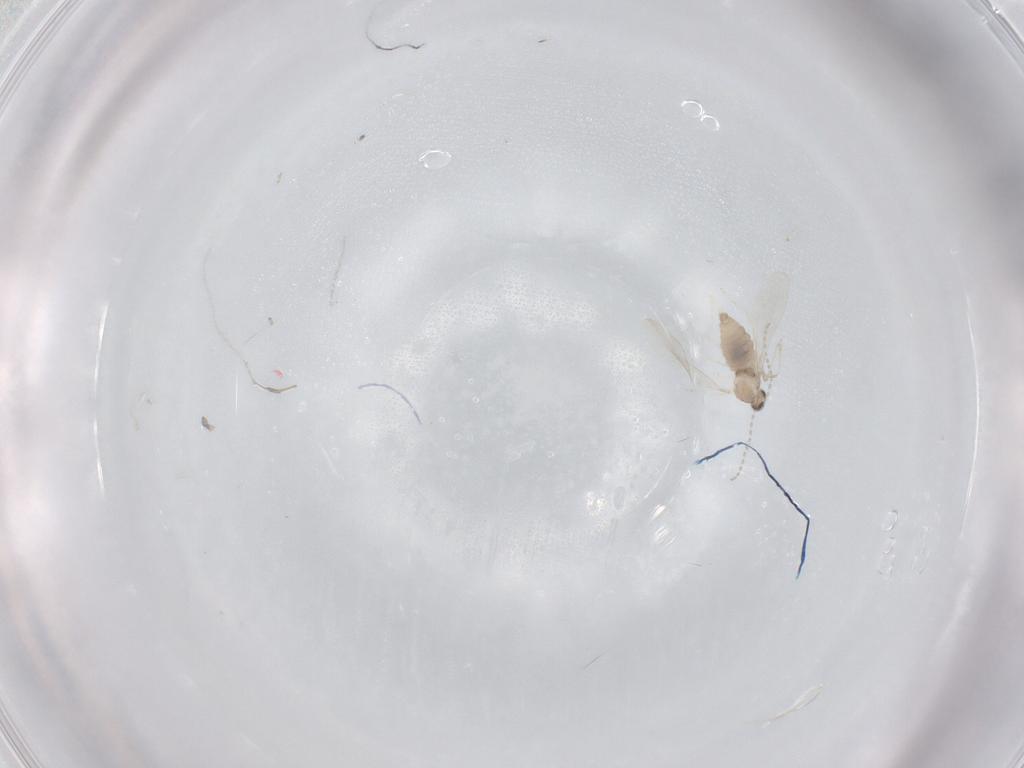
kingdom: Animalia
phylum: Arthropoda
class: Insecta
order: Diptera
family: Cecidomyiidae
